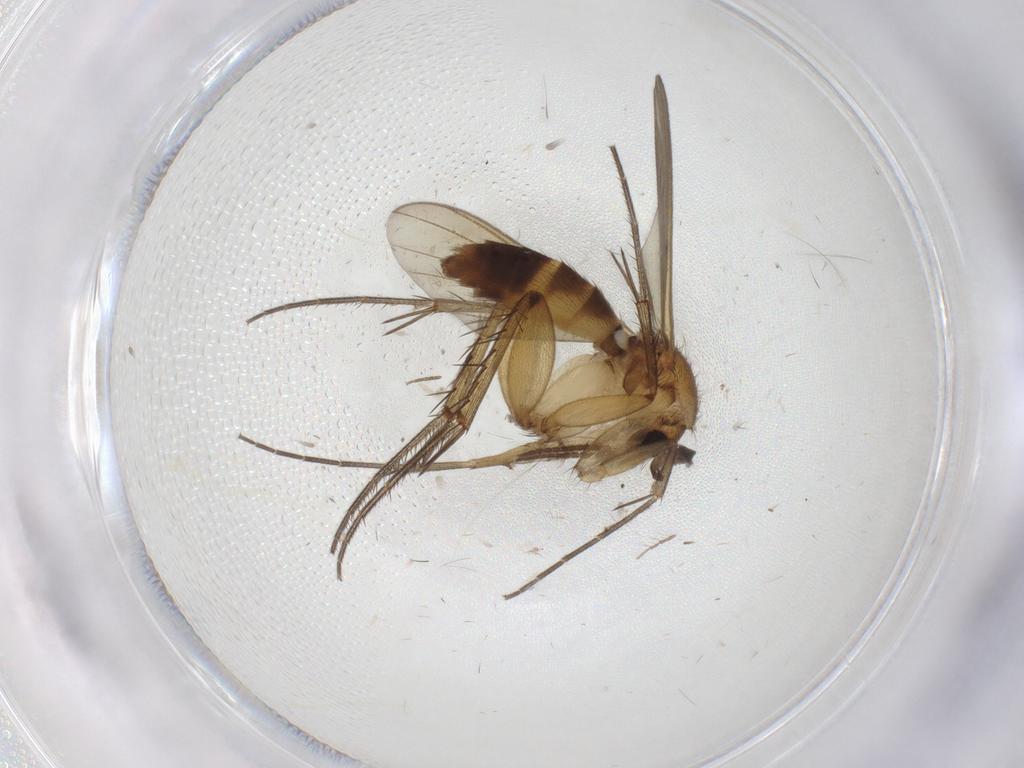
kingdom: Animalia
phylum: Arthropoda
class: Insecta
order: Diptera
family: Mycetophilidae
